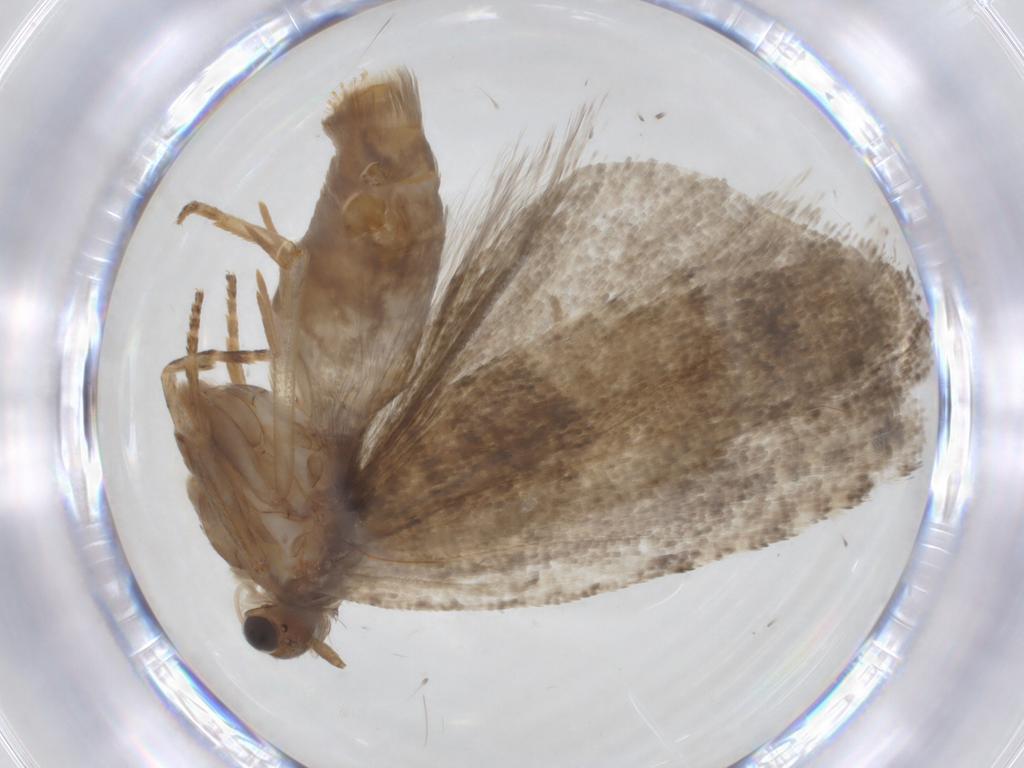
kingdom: Animalia
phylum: Arthropoda
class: Insecta
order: Lepidoptera
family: Tortricidae
